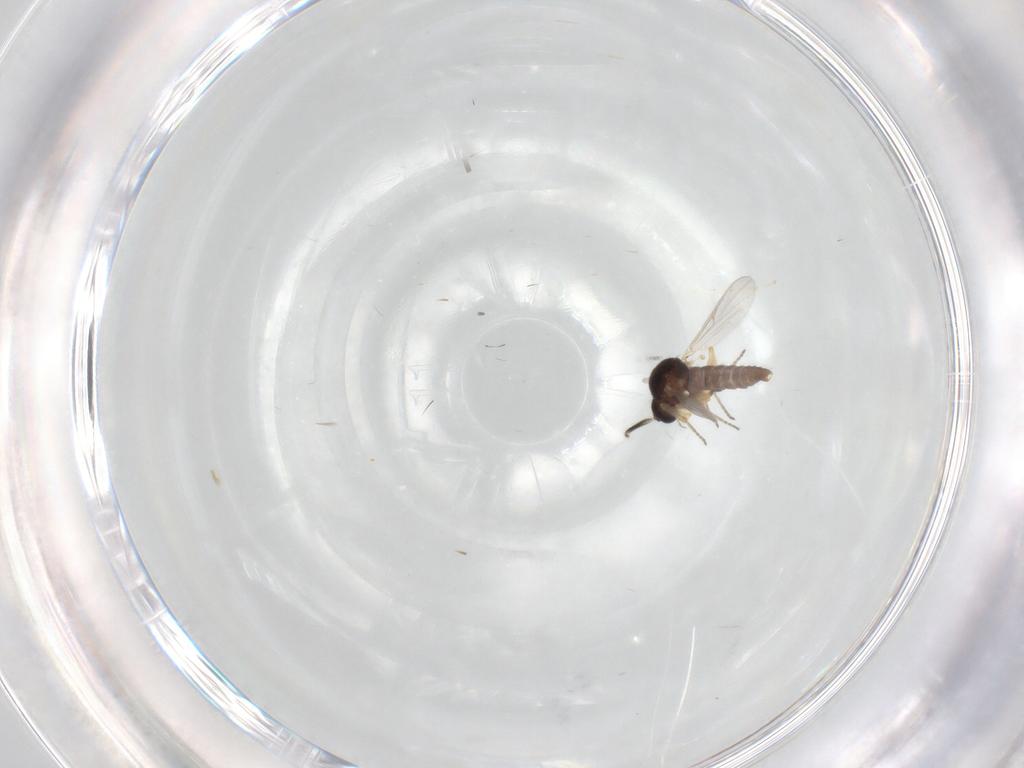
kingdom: Animalia
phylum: Arthropoda
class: Insecta
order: Diptera
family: Ceratopogonidae
